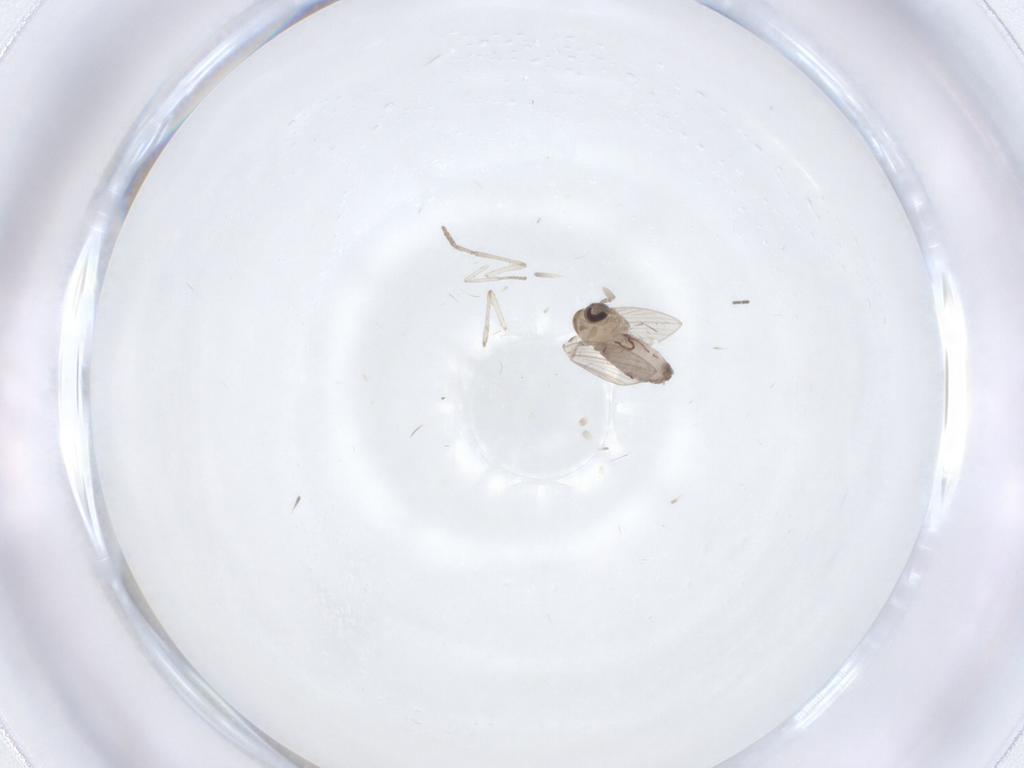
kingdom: Animalia
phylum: Arthropoda
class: Insecta
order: Diptera
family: Psychodidae
